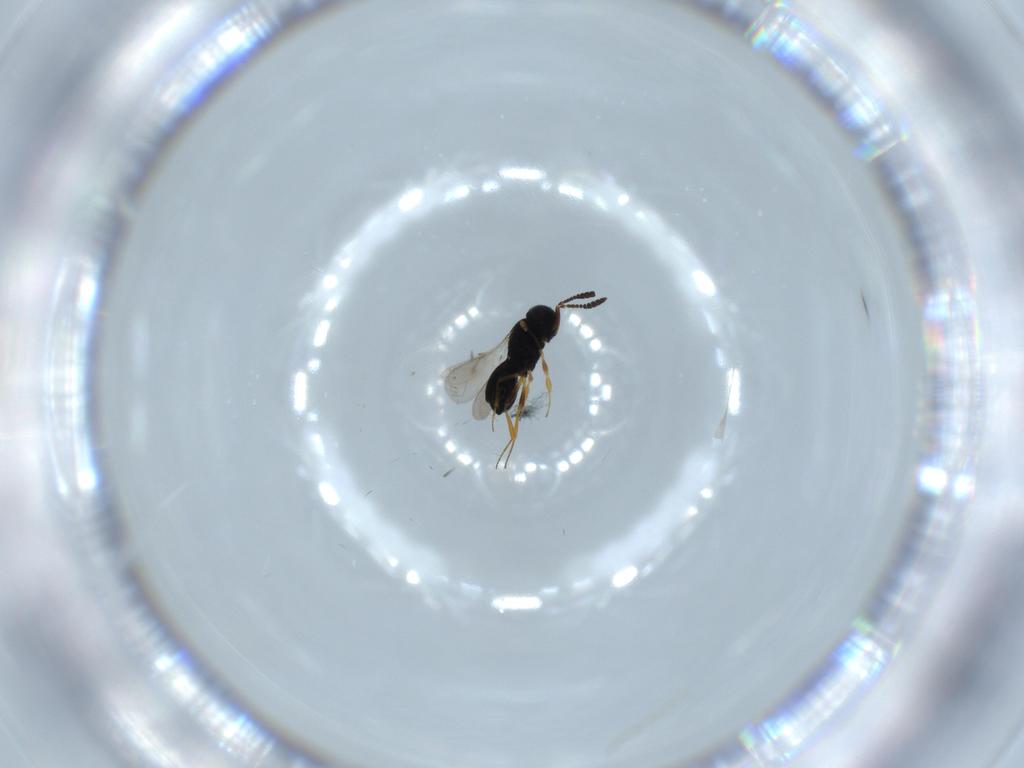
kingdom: Animalia
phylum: Arthropoda
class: Insecta
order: Hymenoptera
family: Scelionidae
